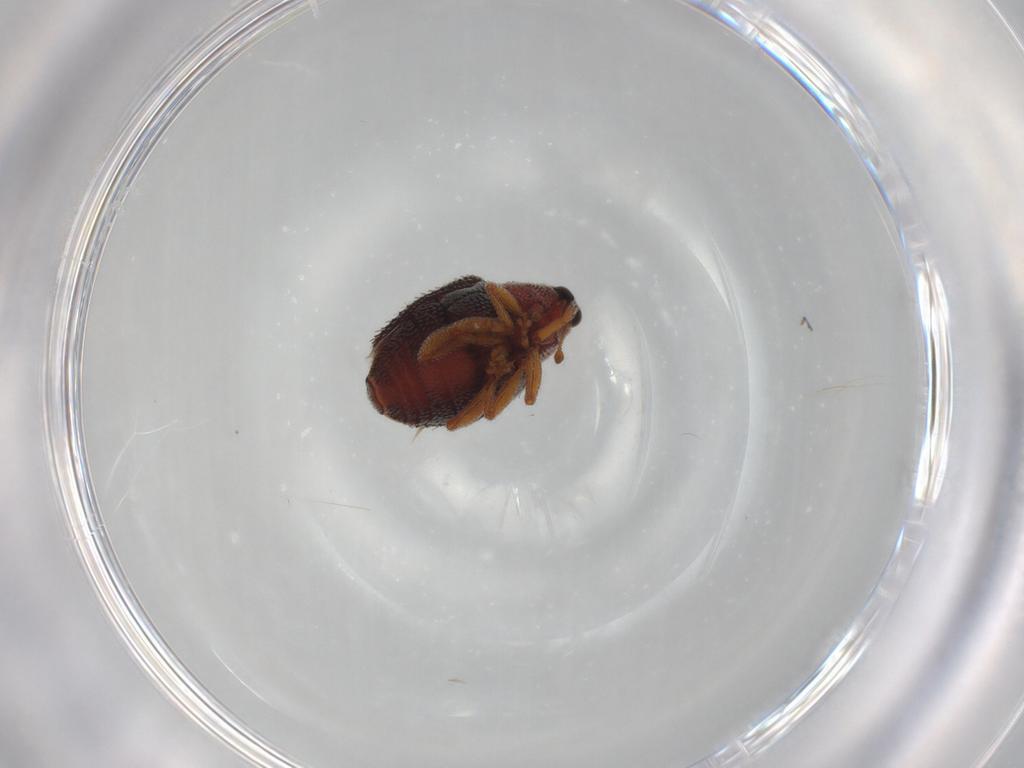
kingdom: Animalia
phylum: Arthropoda
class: Insecta
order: Coleoptera
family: Curculionidae
